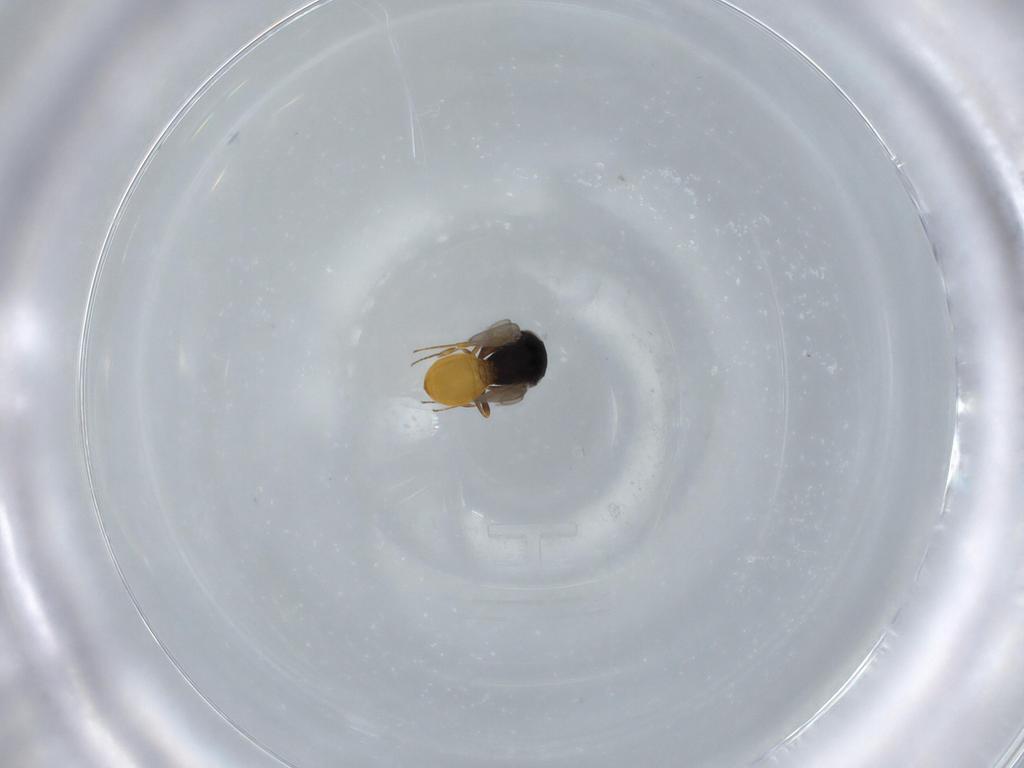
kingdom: Animalia
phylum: Arthropoda
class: Insecta
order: Hymenoptera
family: Scelionidae
